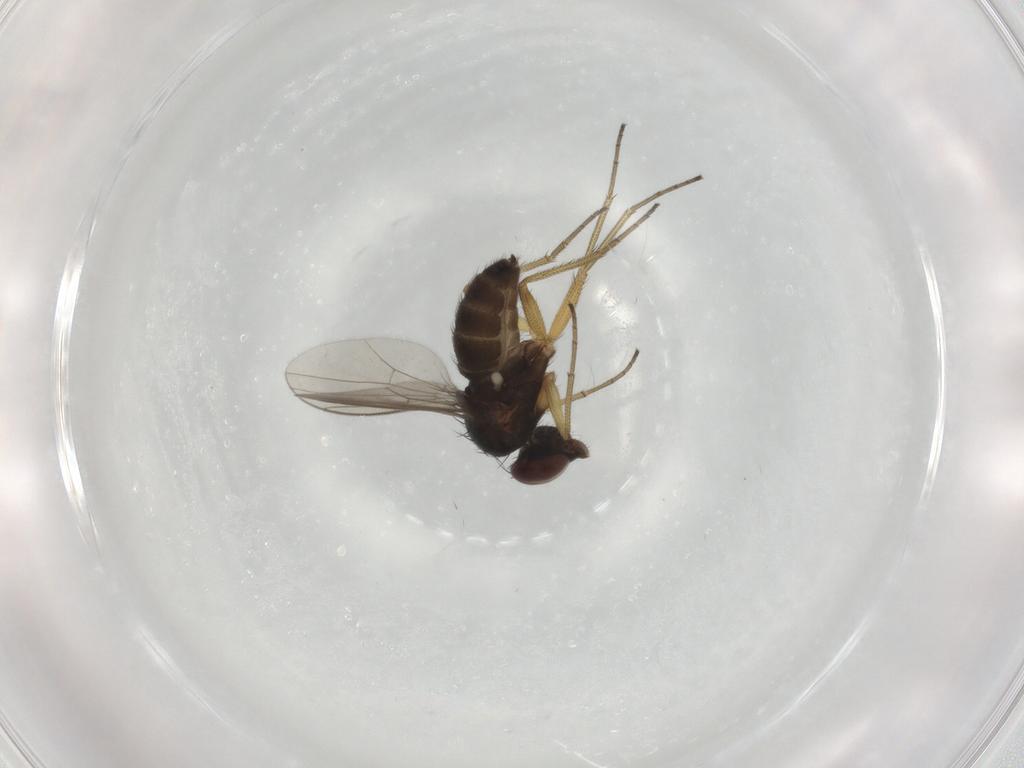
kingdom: Animalia
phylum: Arthropoda
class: Insecta
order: Diptera
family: Dolichopodidae
